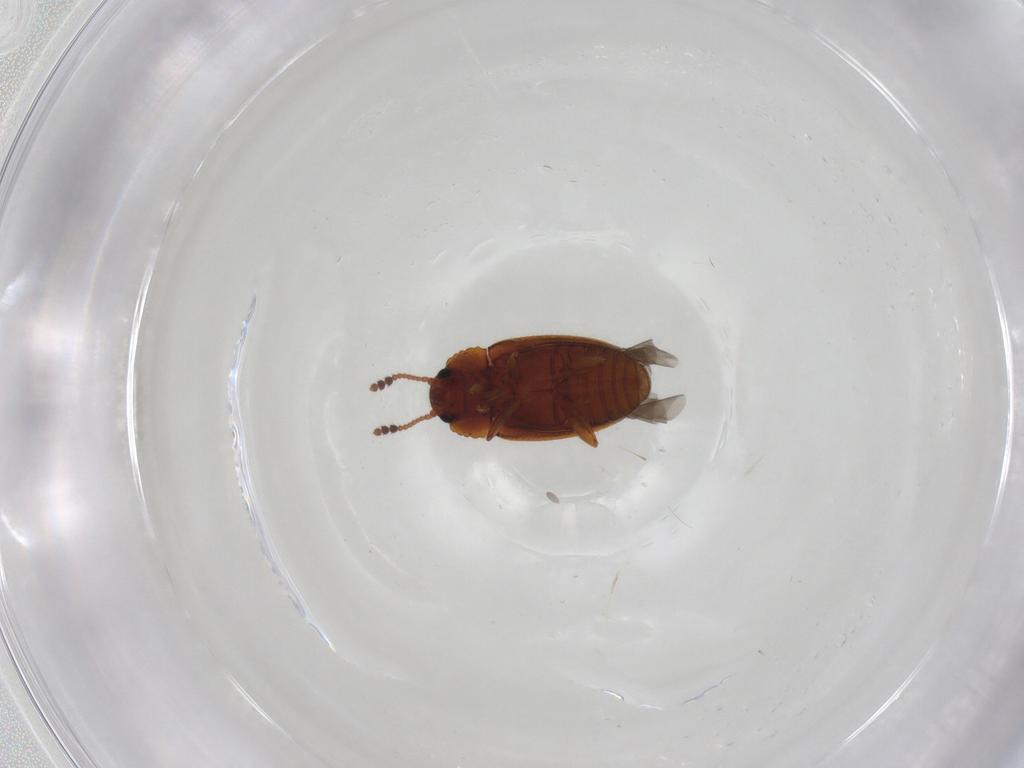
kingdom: Animalia
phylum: Arthropoda
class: Insecta
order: Coleoptera
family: Erotylidae
